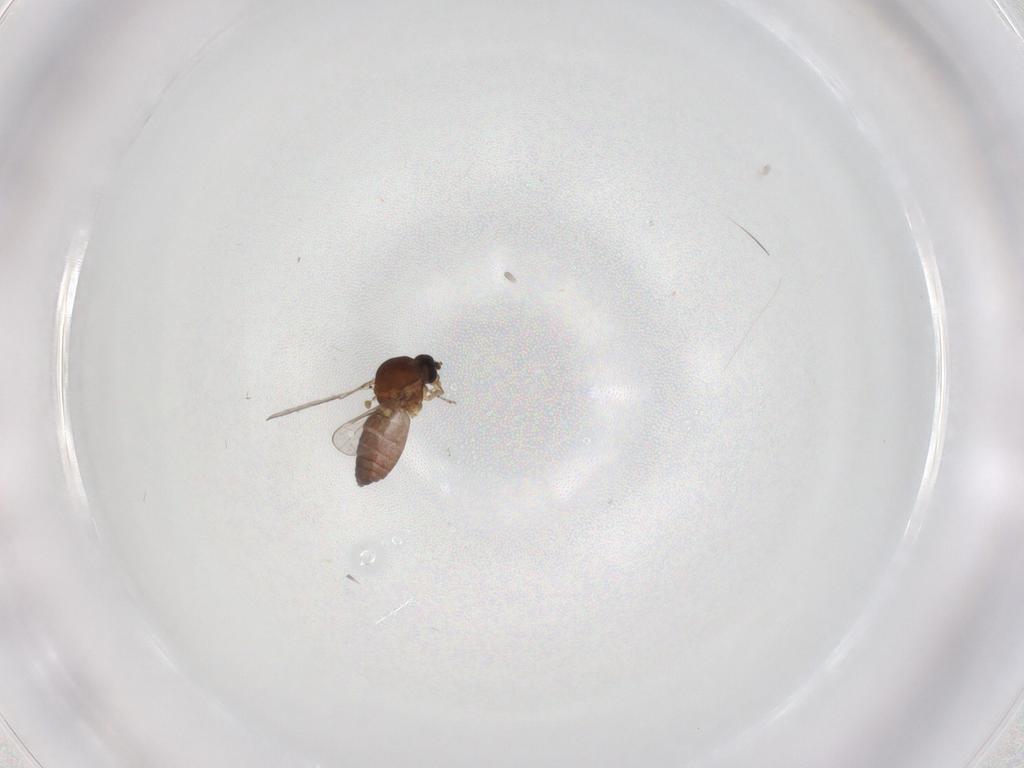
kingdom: Animalia
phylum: Arthropoda
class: Insecta
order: Diptera
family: Ceratopogonidae
